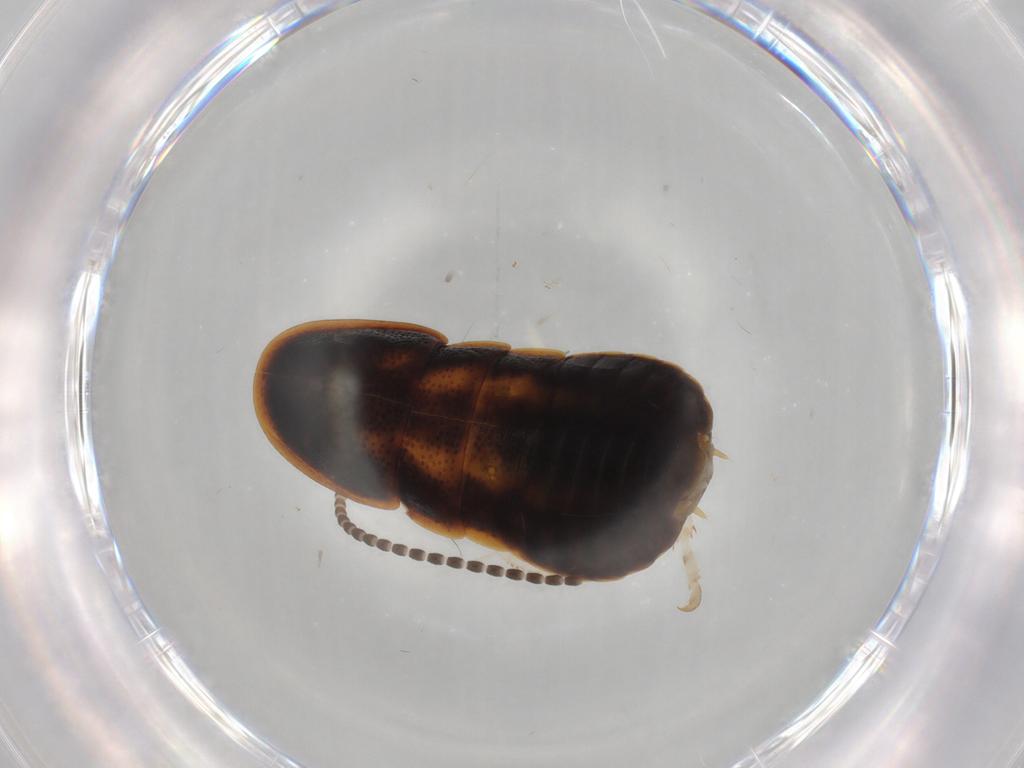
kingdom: Animalia
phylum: Arthropoda
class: Insecta
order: Blattodea
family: Blaberidae
